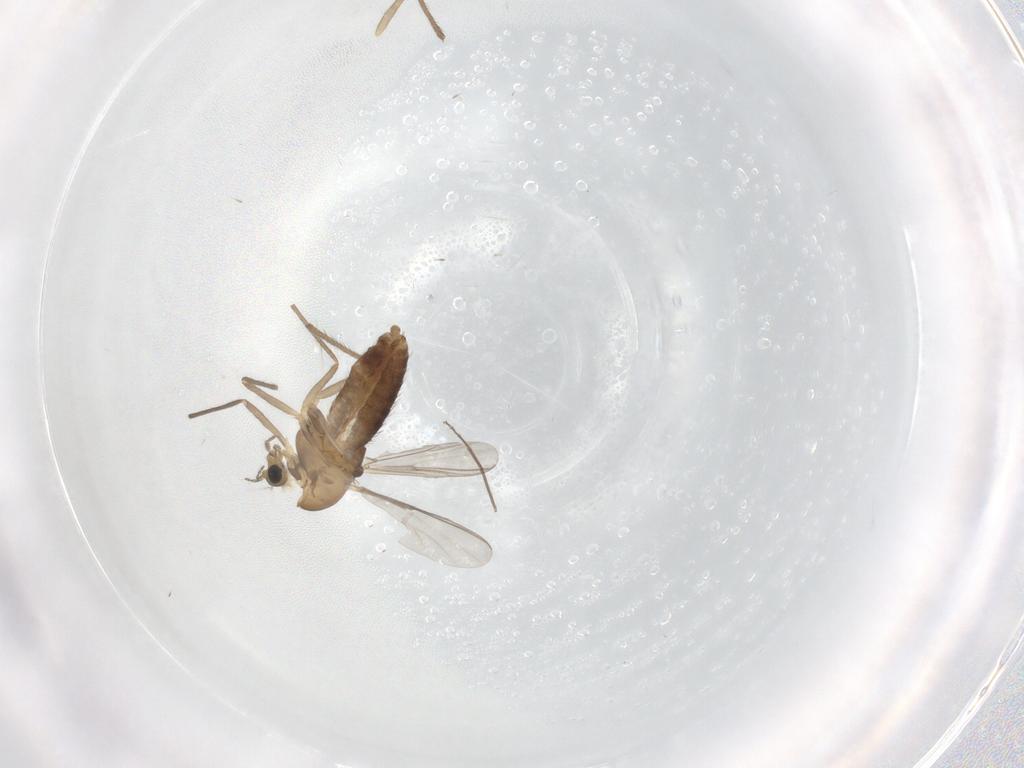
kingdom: Animalia
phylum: Arthropoda
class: Insecta
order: Diptera
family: Chironomidae
